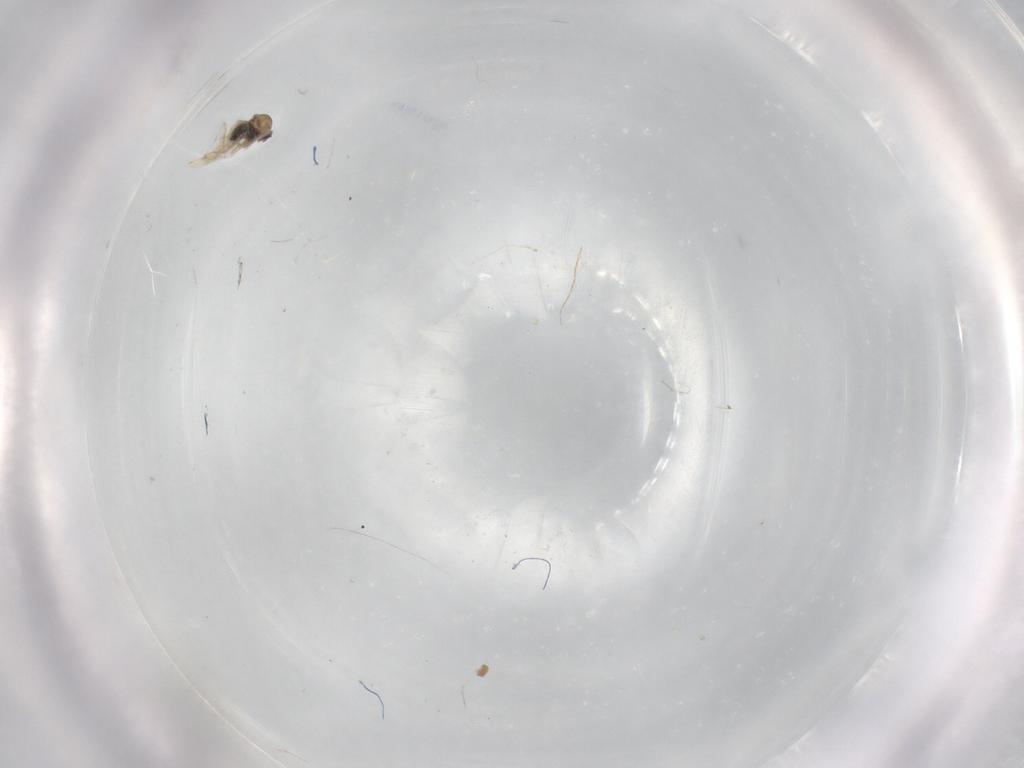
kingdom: Animalia
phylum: Arthropoda
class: Insecta
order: Diptera
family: Cecidomyiidae
